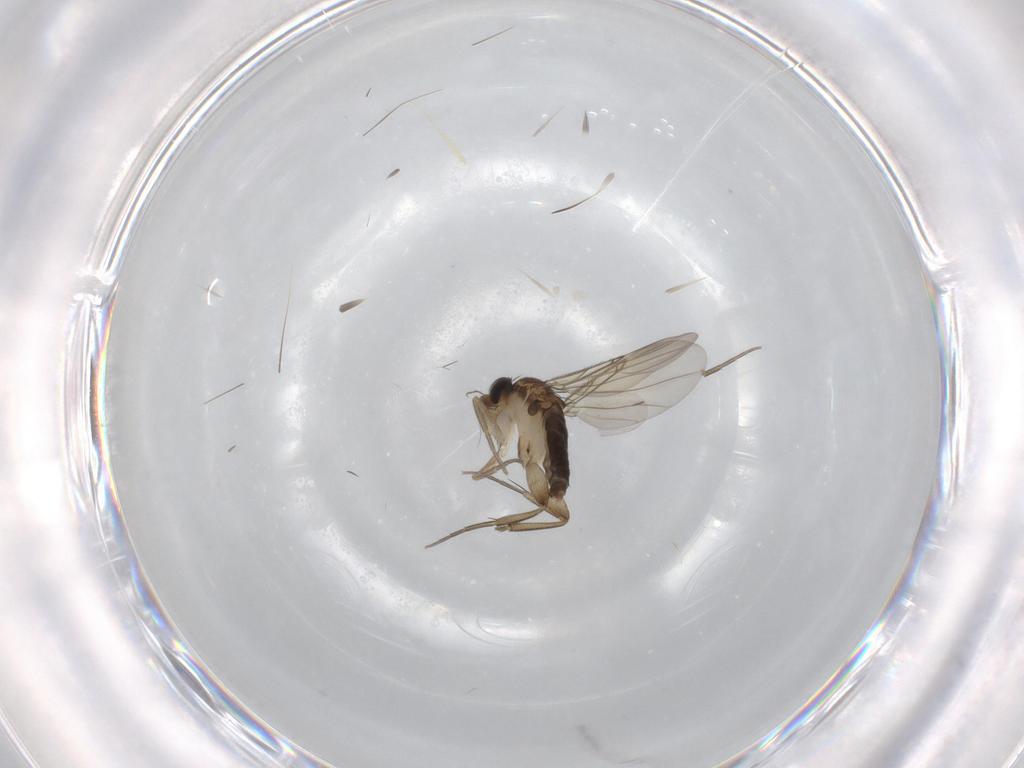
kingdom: Animalia
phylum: Arthropoda
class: Insecta
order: Diptera
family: Phoridae
